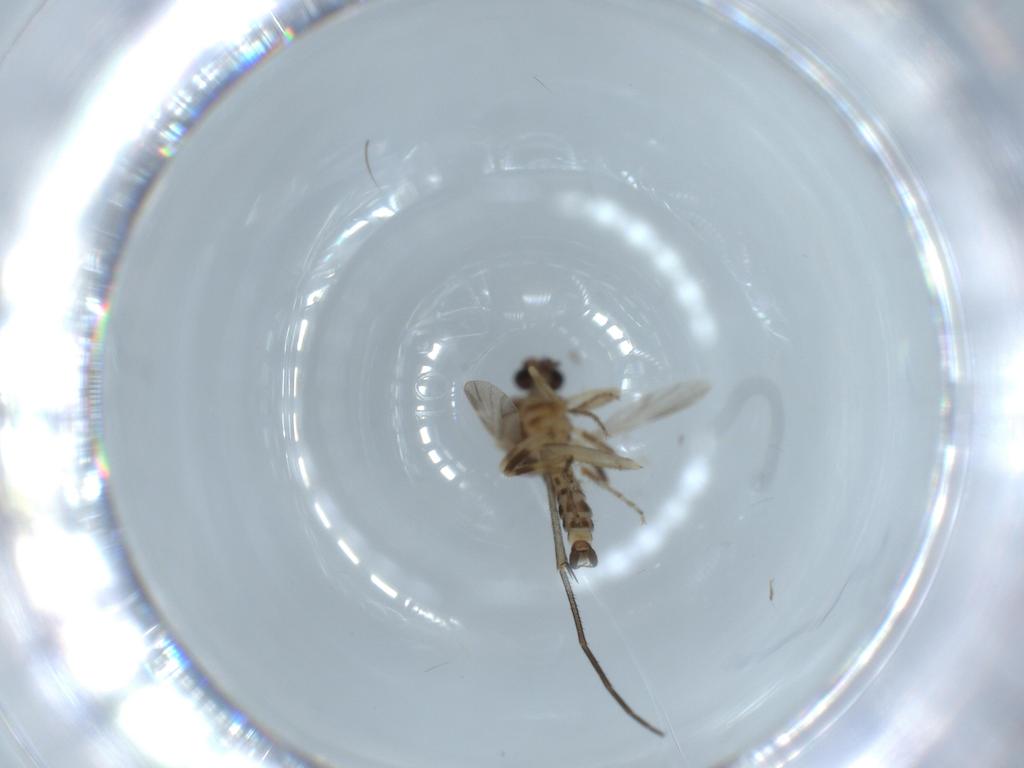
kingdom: Animalia
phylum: Arthropoda
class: Insecta
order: Diptera
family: Ceratopogonidae
